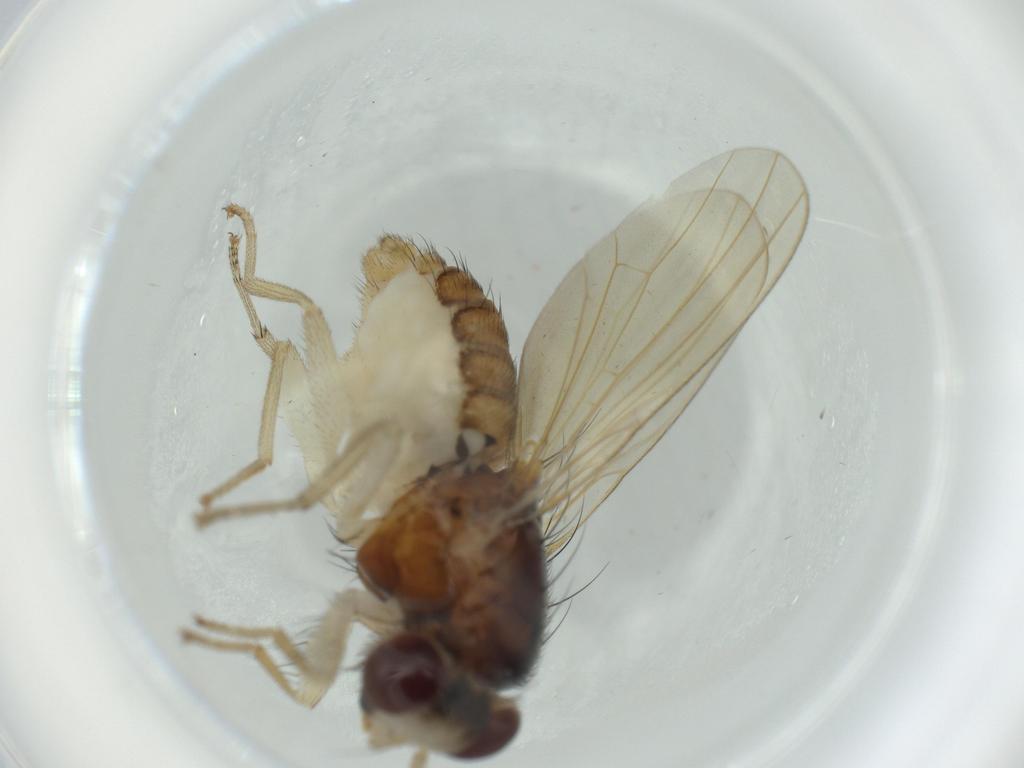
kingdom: Animalia
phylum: Arthropoda
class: Insecta
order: Diptera
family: Lauxaniidae
